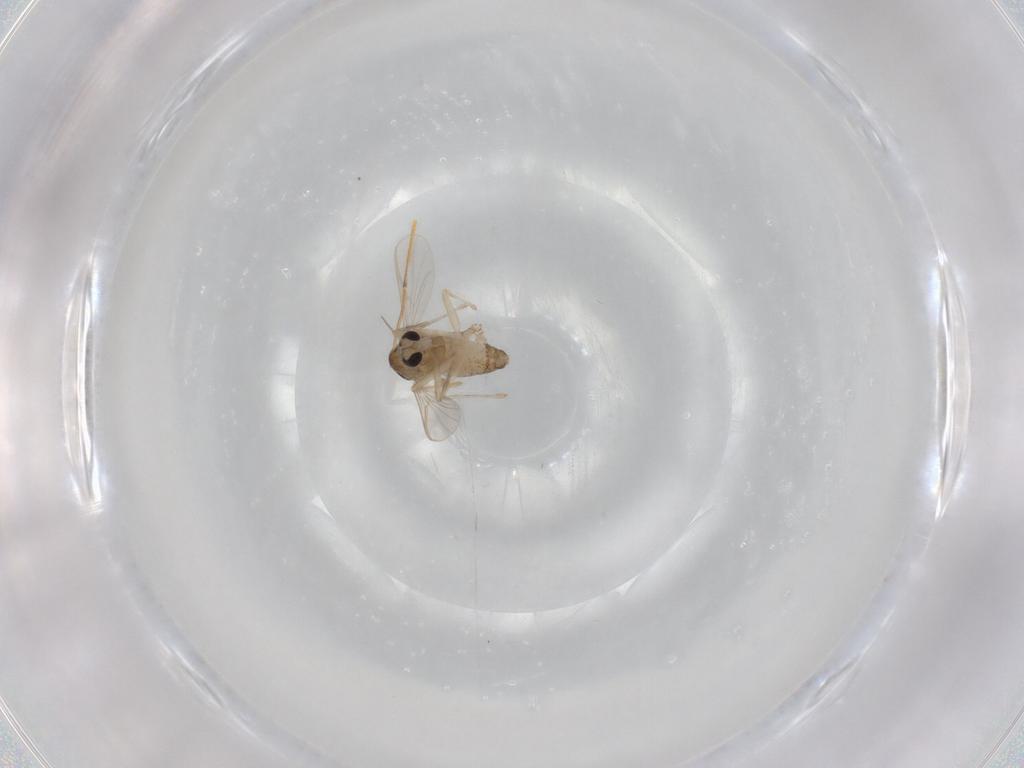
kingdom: Animalia
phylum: Arthropoda
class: Insecta
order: Diptera
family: Chironomidae
